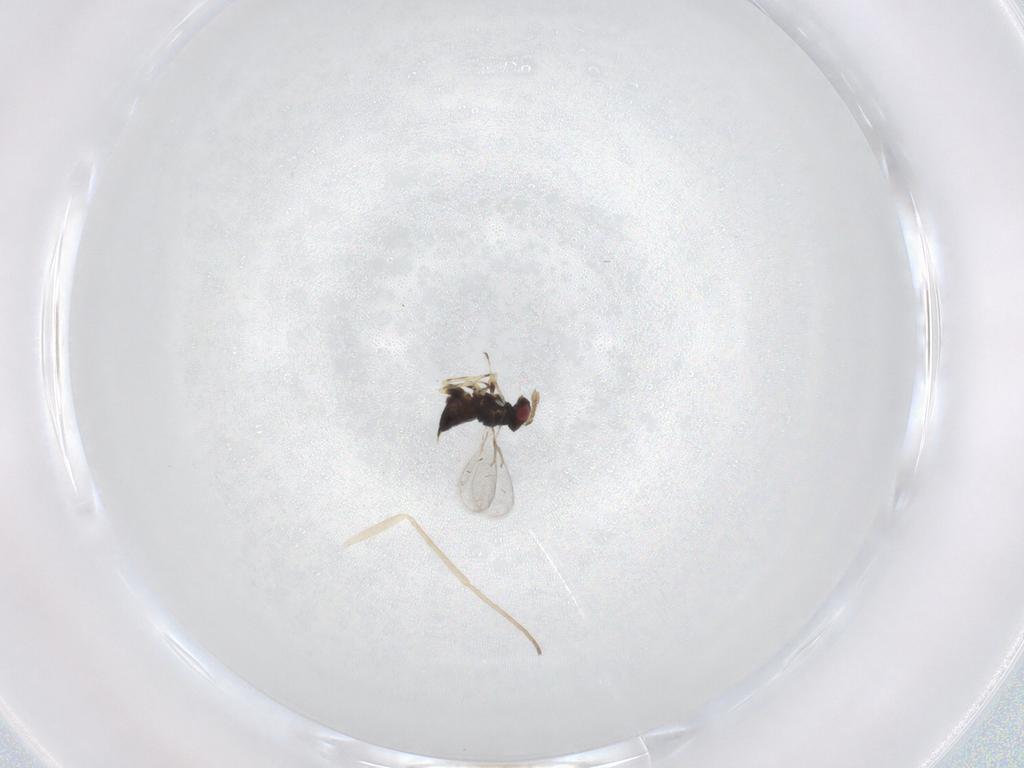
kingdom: Animalia
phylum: Arthropoda
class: Insecta
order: Hymenoptera
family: Eulophidae
